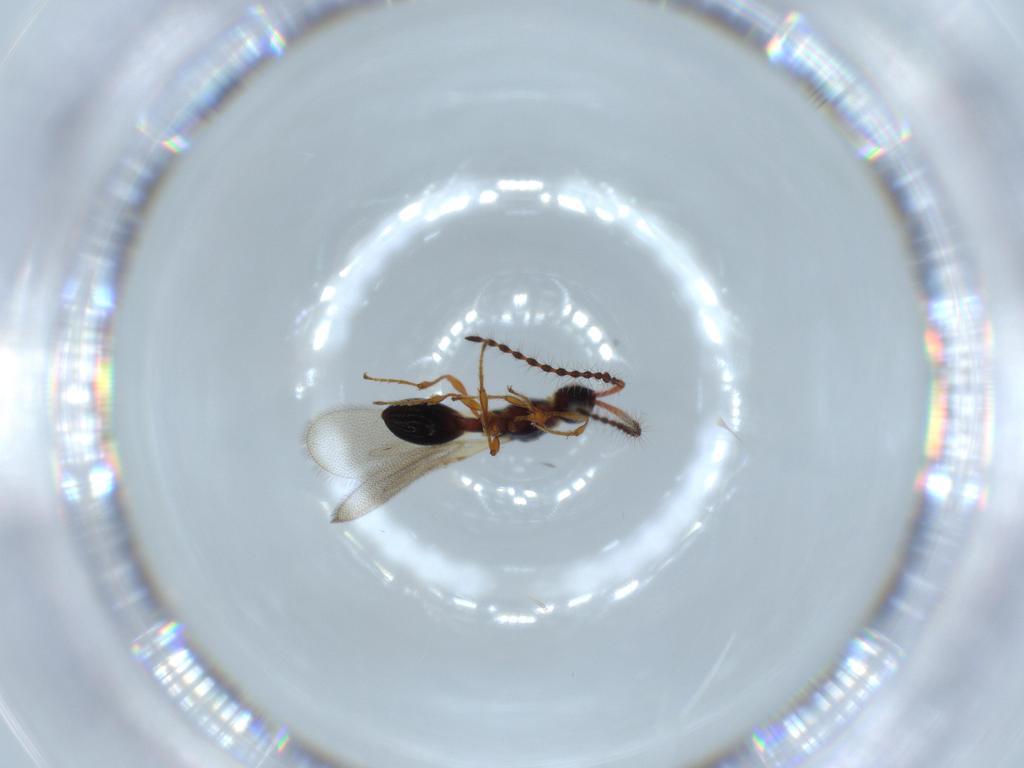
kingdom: Animalia
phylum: Arthropoda
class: Insecta
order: Hymenoptera
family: Diapriidae
